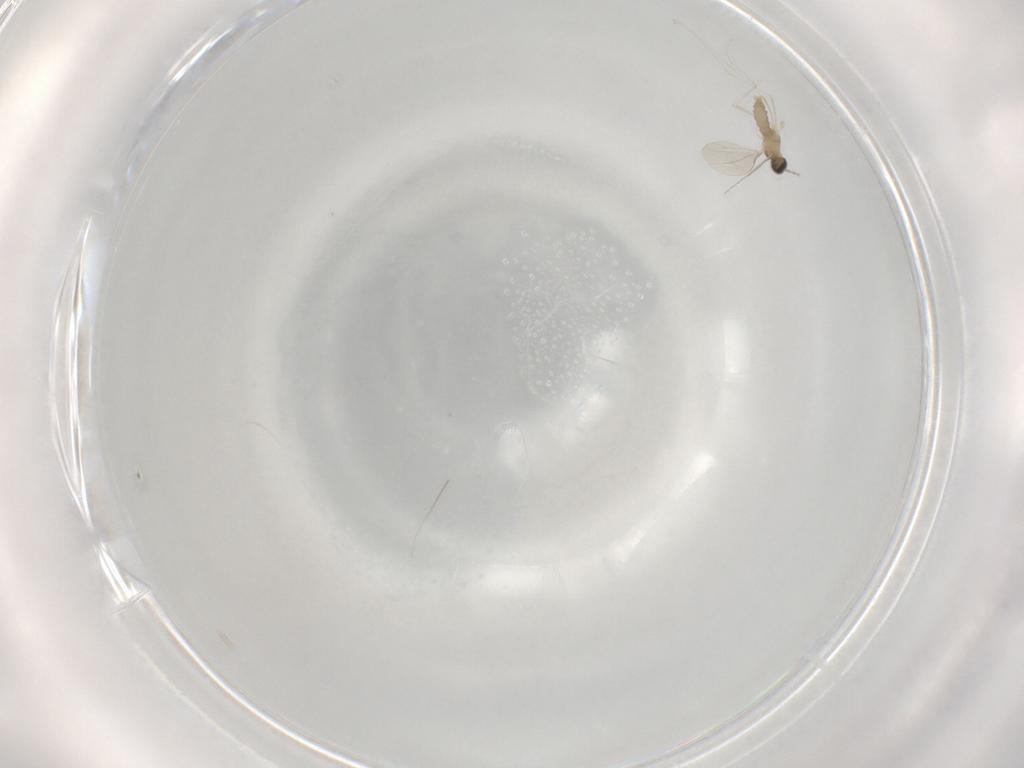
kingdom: Animalia
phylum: Arthropoda
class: Insecta
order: Diptera
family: Cecidomyiidae
